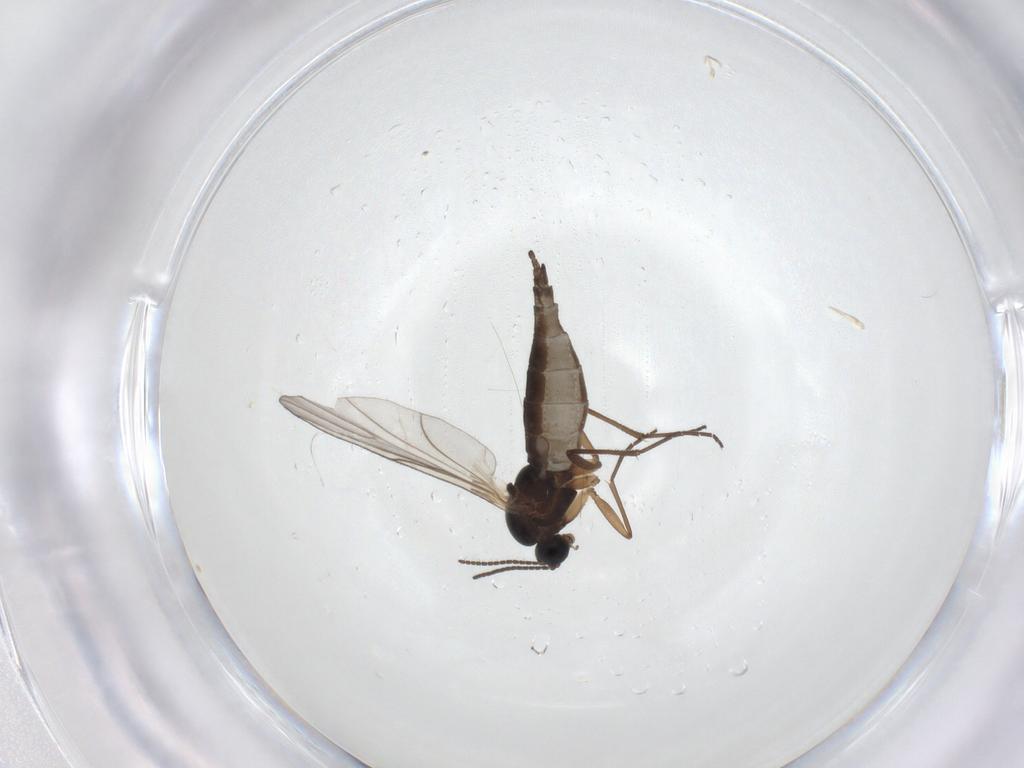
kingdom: Animalia
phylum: Arthropoda
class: Insecta
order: Diptera
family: Sciaridae
